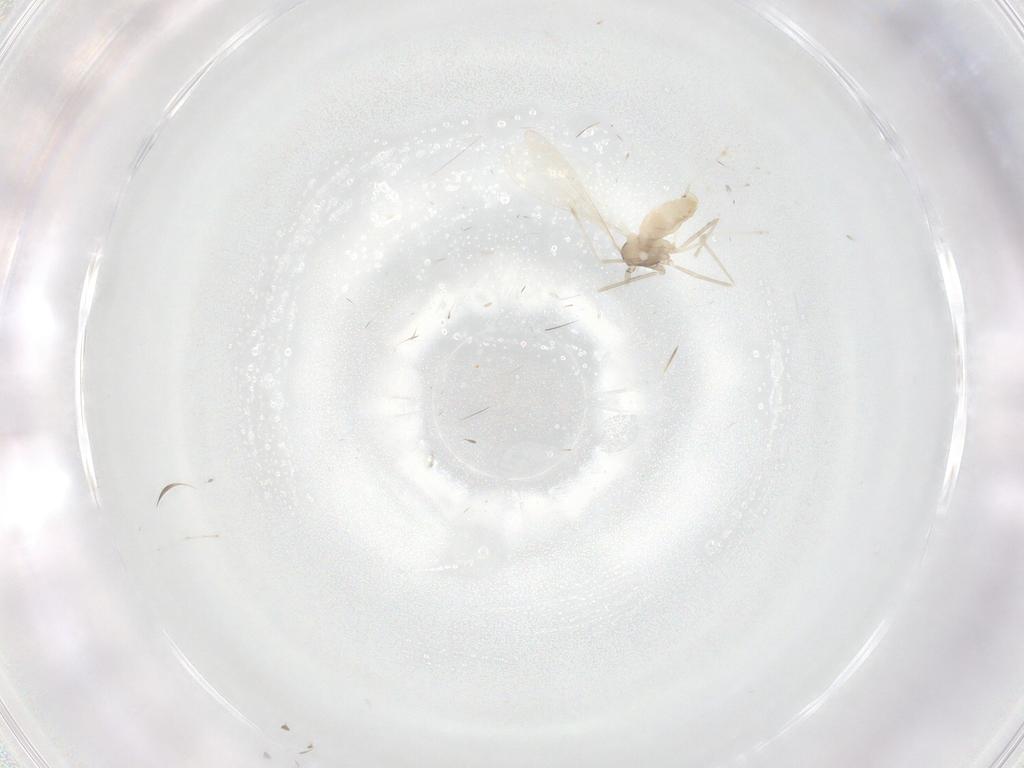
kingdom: Animalia
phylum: Arthropoda
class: Insecta
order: Diptera
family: Cecidomyiidae
